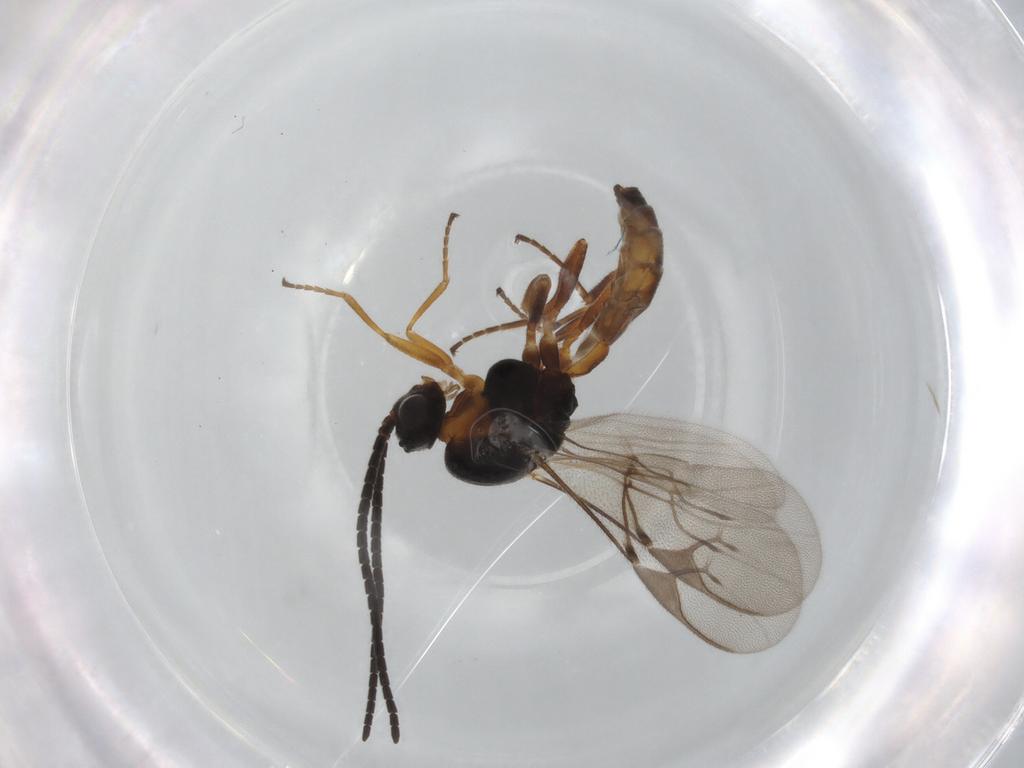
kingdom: Animalia
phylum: Arthropoda
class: Insecta
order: Hymenoptera
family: Braconidae
